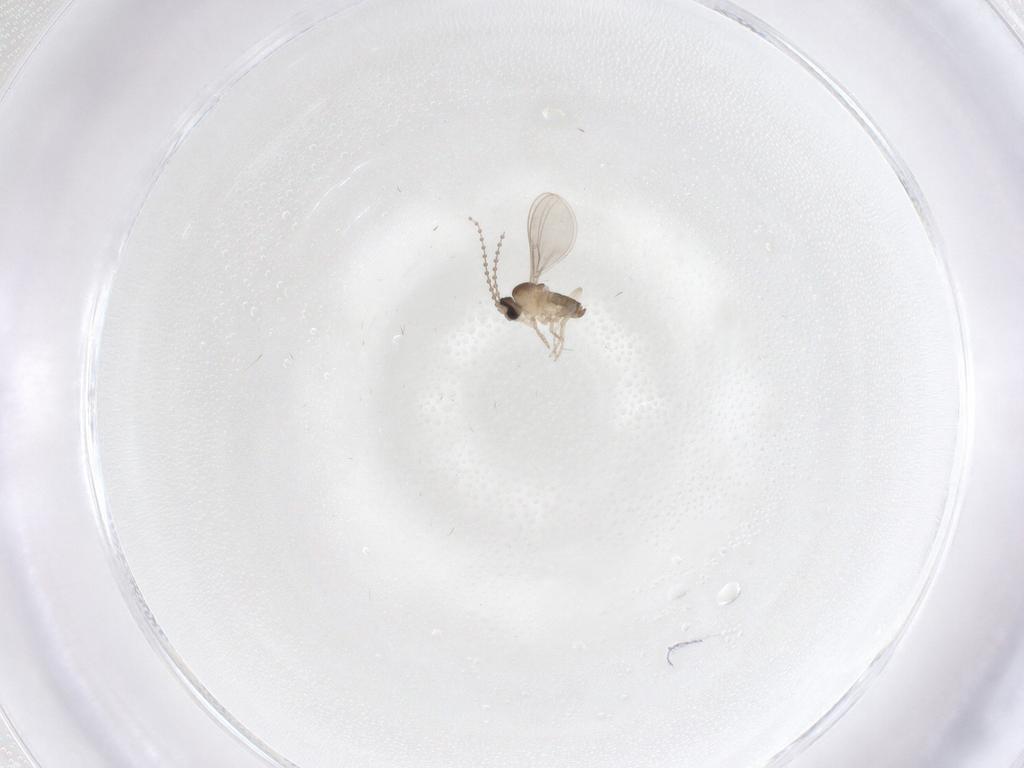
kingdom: Animalia
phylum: Arthropoda
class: Insecta
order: Diptera
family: Cecidomyiidae
